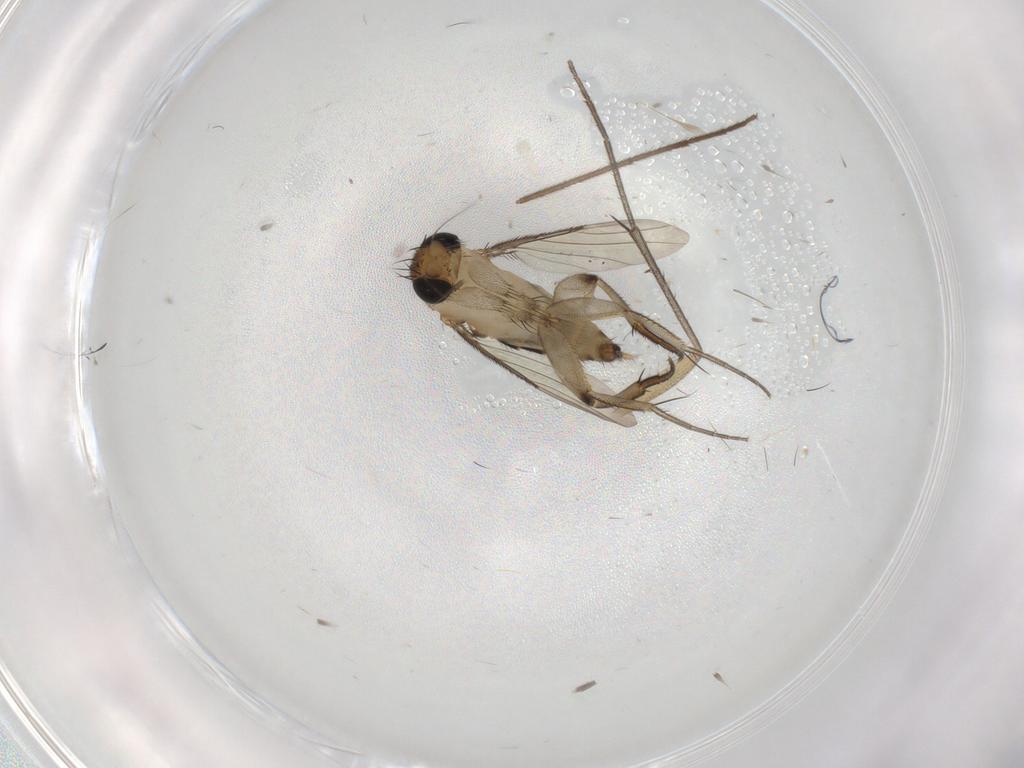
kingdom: Animalia
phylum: Arthropoda
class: Insecta
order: Diptera
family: Phoridae
